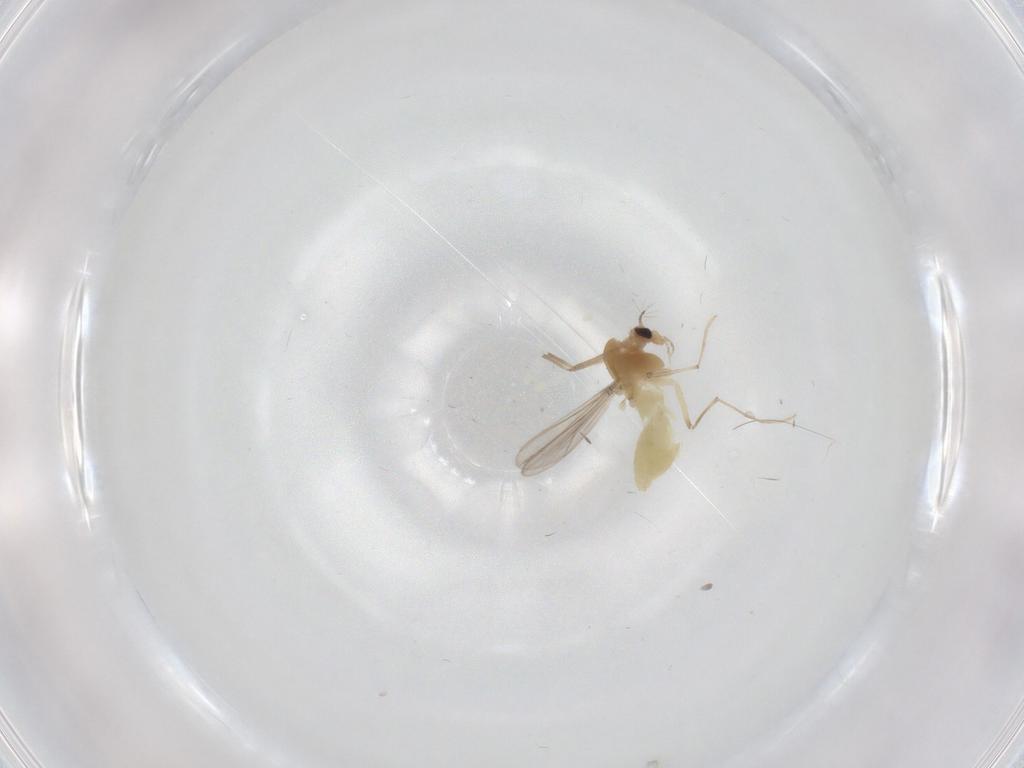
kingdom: Animalia
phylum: Arthropoda
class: Insecta
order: Diptera
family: Chironomidae
